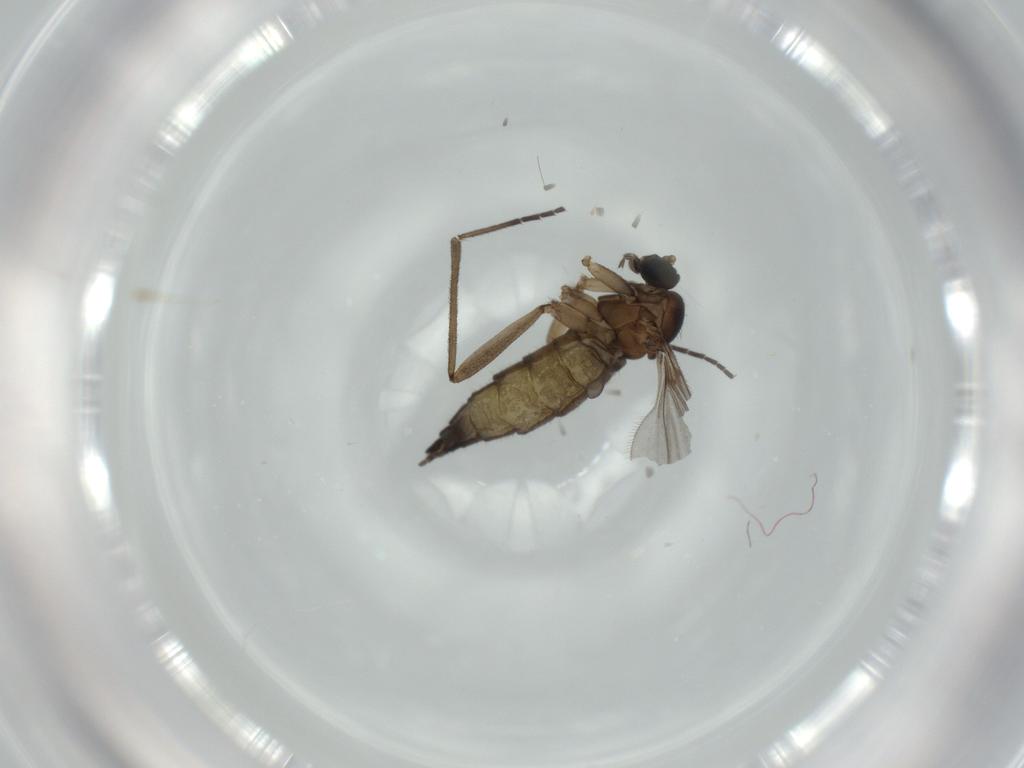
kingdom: Animalia
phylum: Arthropoda
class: Insecta
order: Diptera
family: Sciaridae
